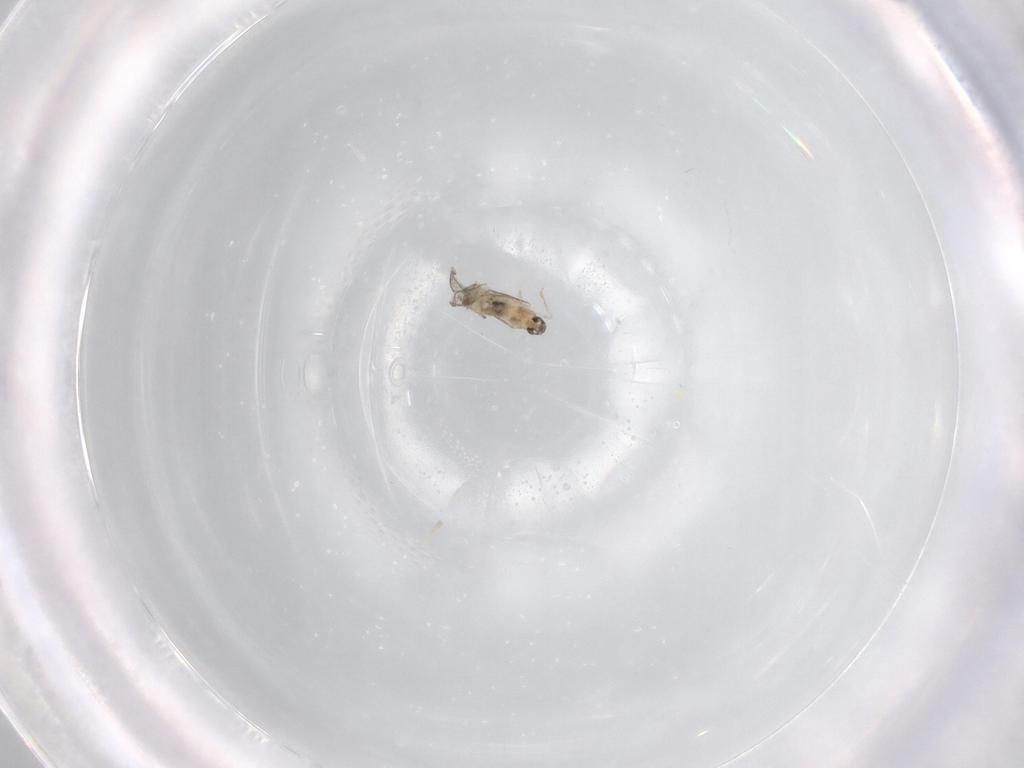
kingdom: Animalia
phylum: Arthropoda
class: Insecta
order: Diptera
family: Cecidomyiidae
